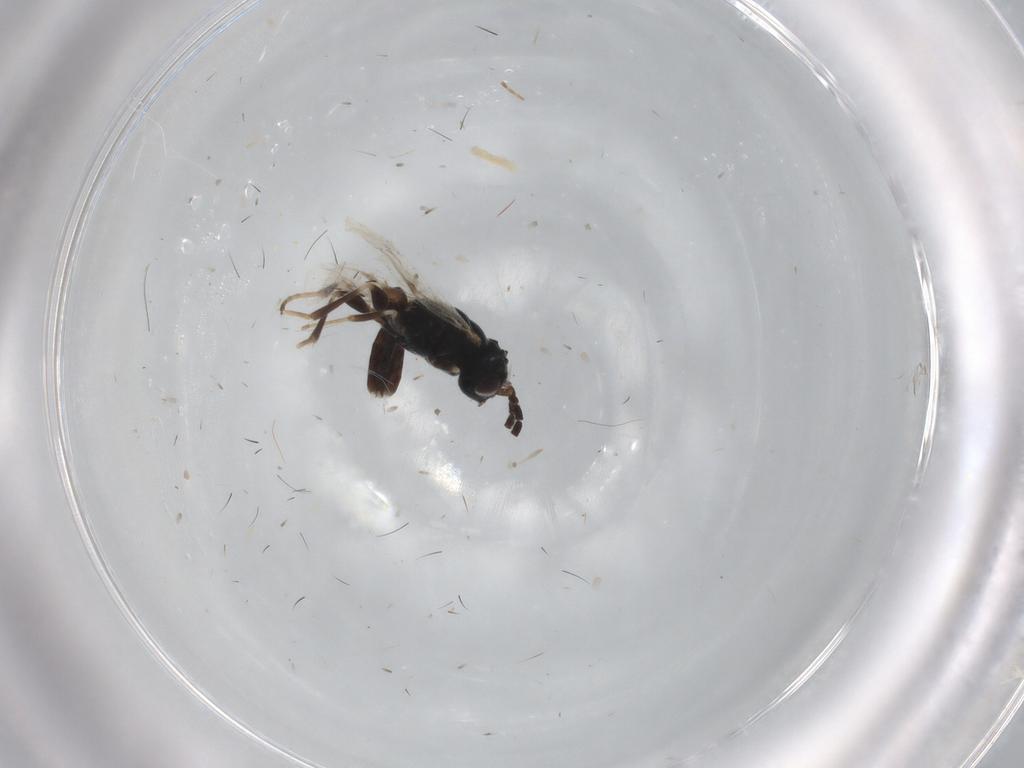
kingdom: Animalia
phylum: Arthropoda
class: Insecta
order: Hymenoptera
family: Dryinidae
